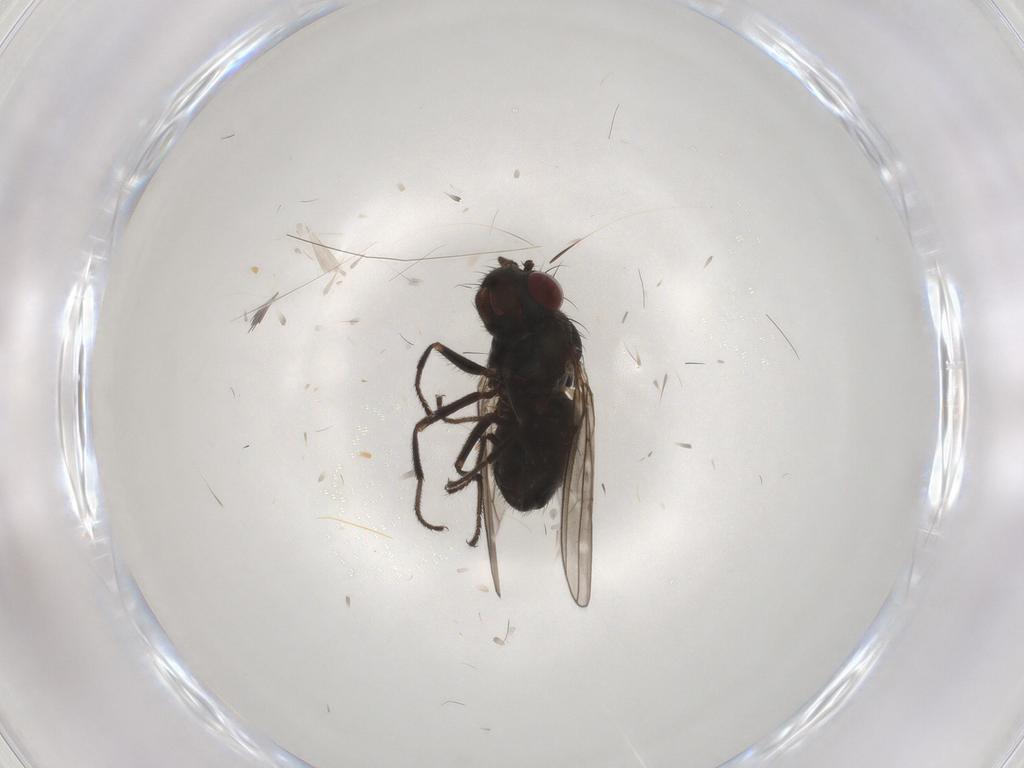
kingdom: Animalia
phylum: Arthropoda
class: Insecta
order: Diptera
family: Ephydridae
